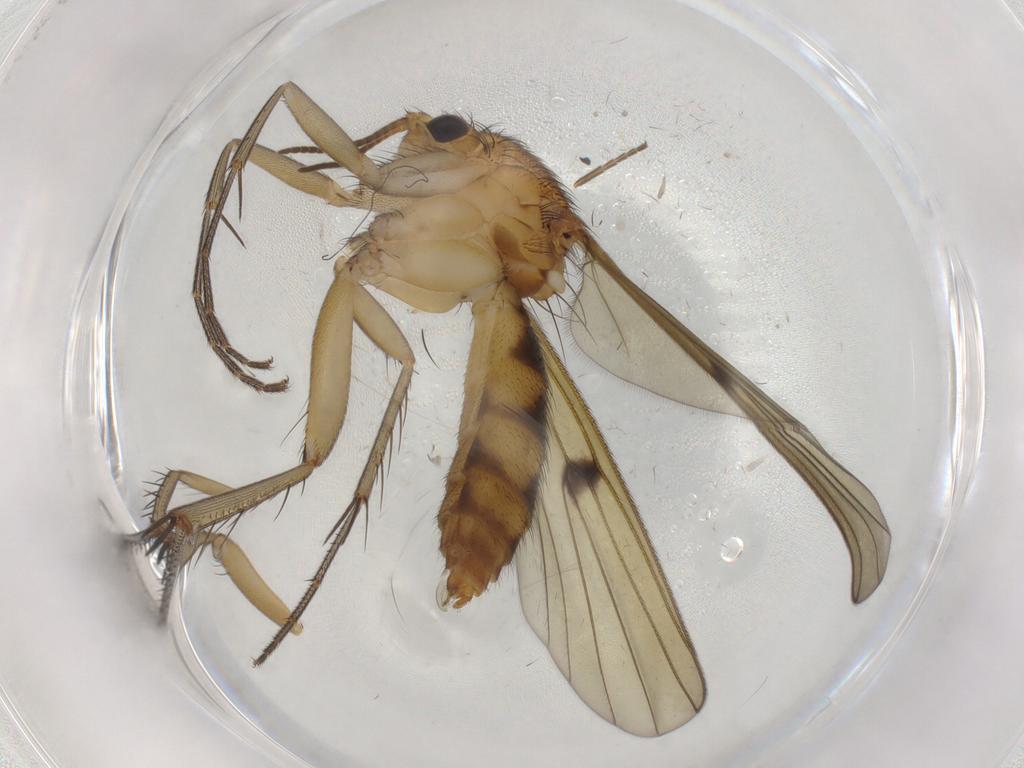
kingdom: Animalia
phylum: Arthropoda
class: Insecta
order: Diptera
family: Mycetophilidae
